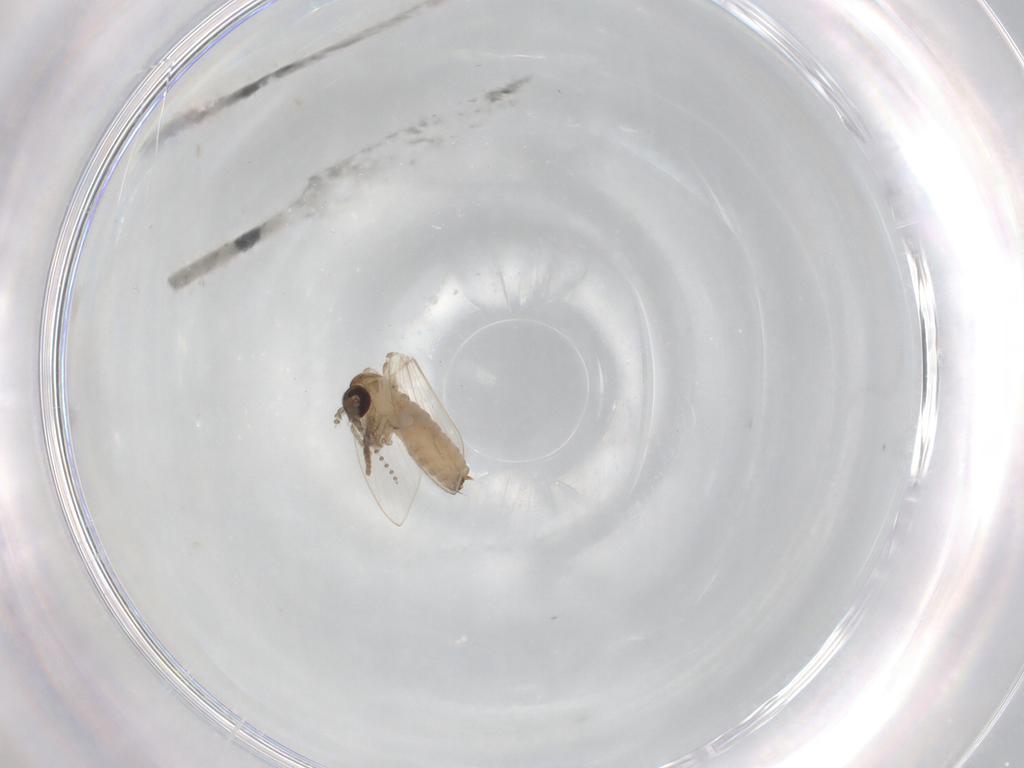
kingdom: Animalia
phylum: Arthropoda
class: Insecta
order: Diptera
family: Psychodidae
